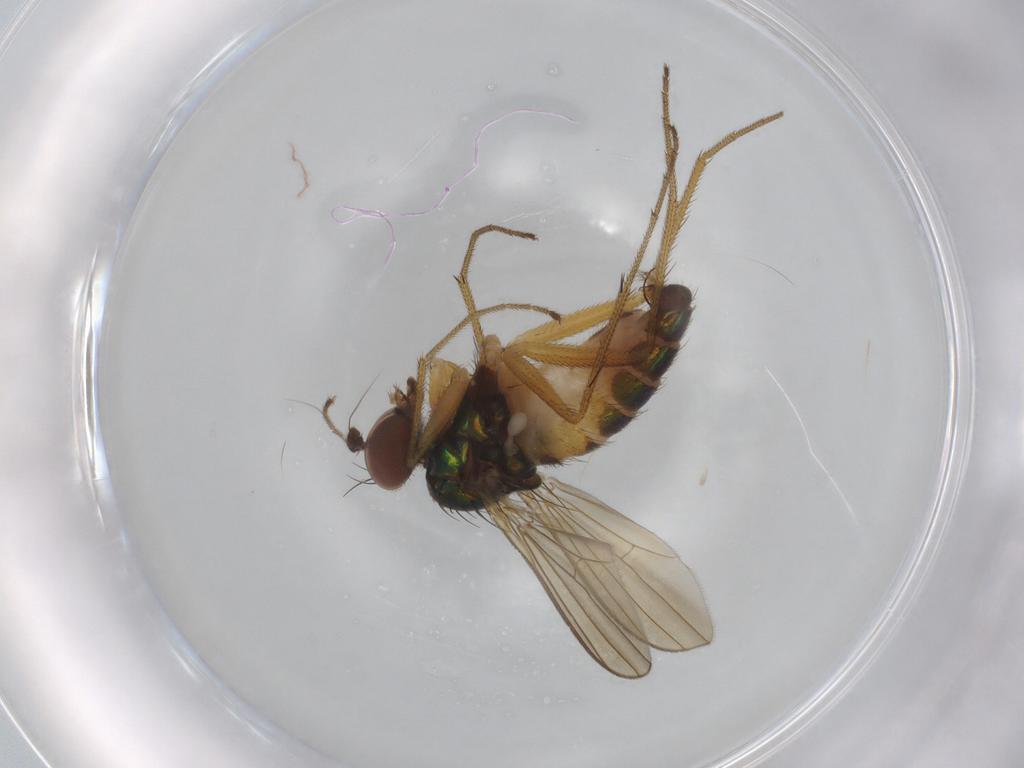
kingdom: Animalia
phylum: Arthropoda
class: Insecta
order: Diptera
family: Dolichopodidae
